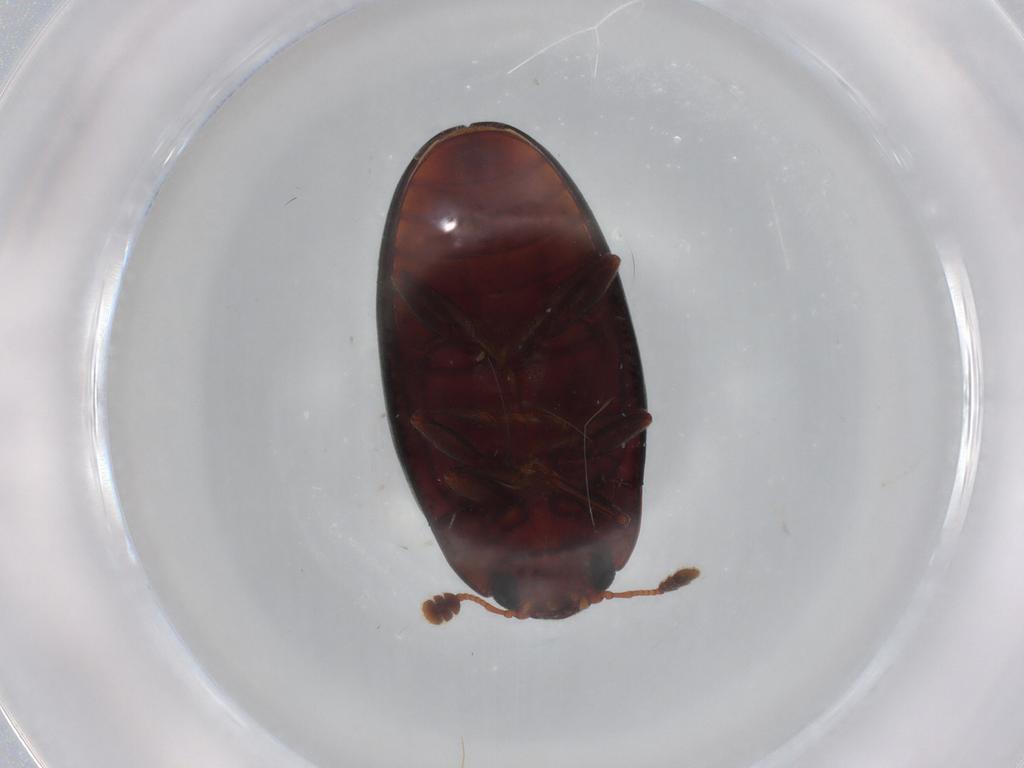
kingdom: Animalia
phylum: Arthropoda
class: Insecta
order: Coleoptera
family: Erotylidae
